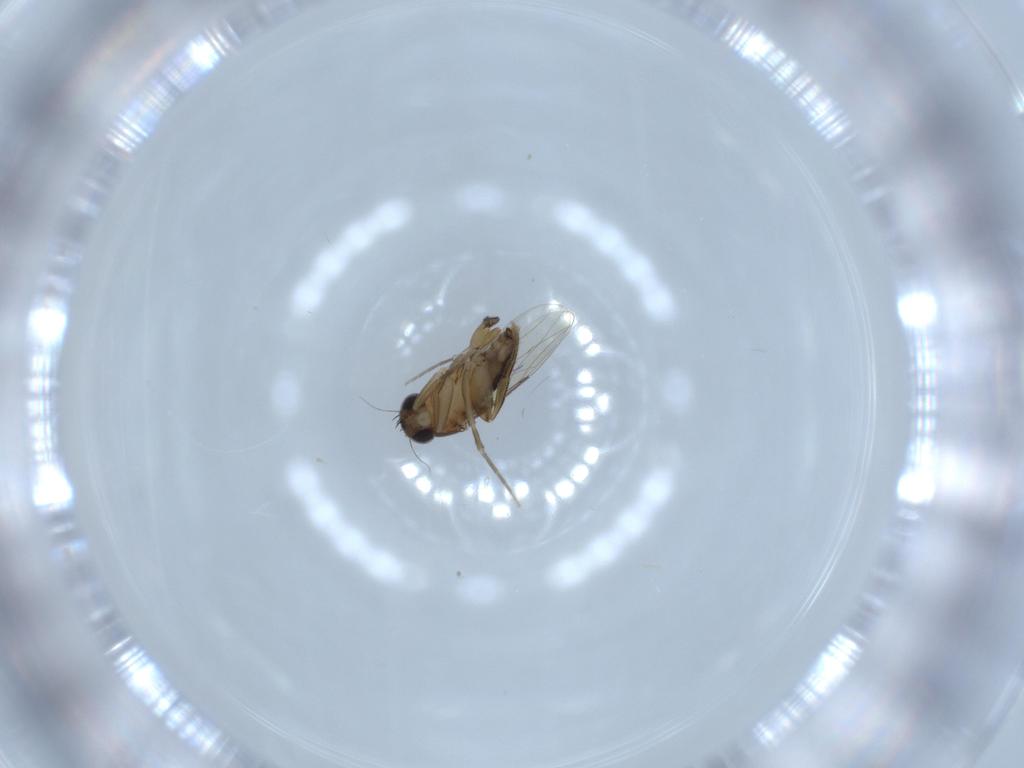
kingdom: Animalia
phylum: Arthropoda
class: Insecta
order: Diptera
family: Phoridae
